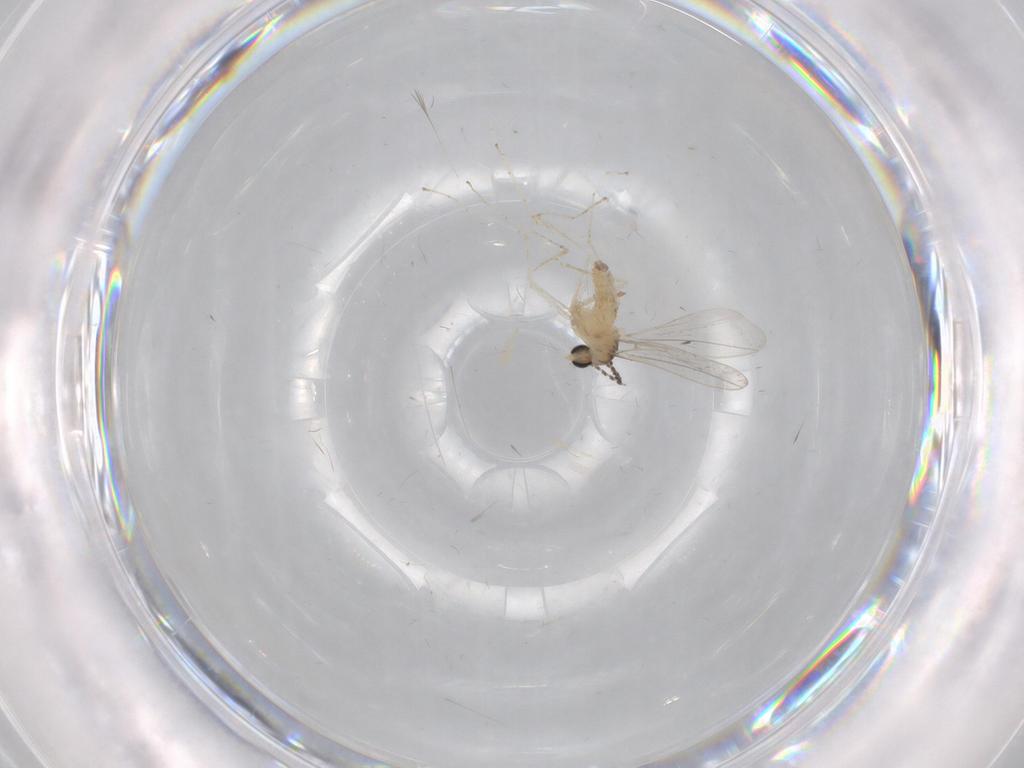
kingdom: Animalia
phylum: Arthropoda
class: Insecta
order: Diptera
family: Cecidomyiidae
